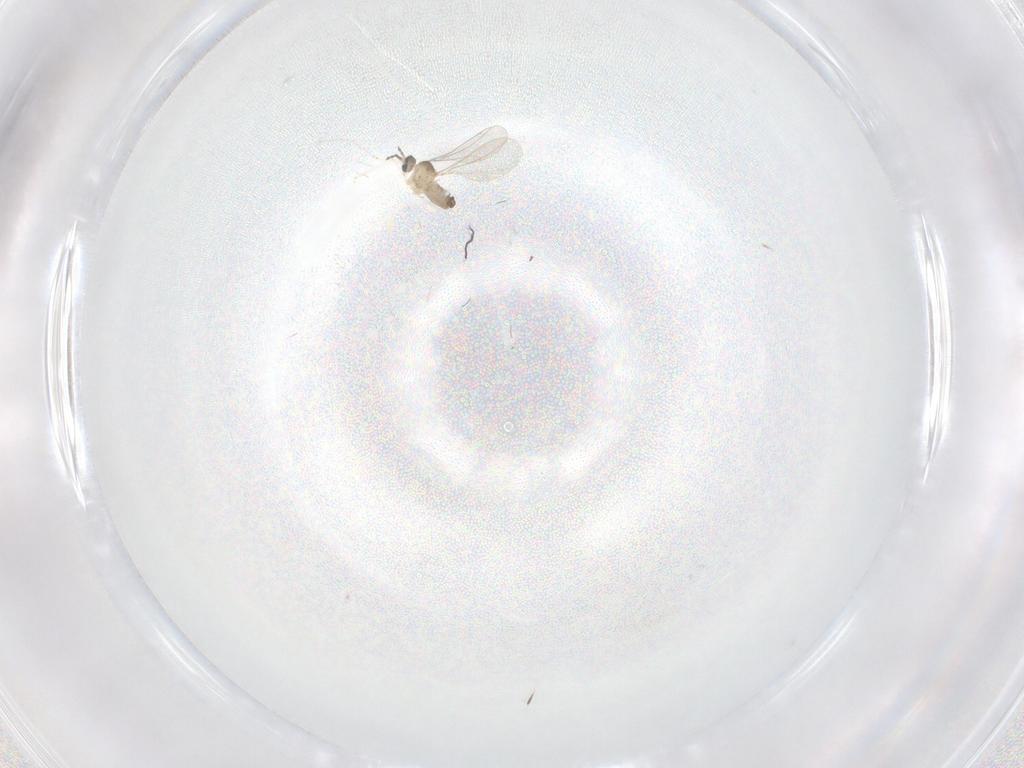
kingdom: Animalia
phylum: Arthropoda
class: Insecta
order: Diptera
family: Cecidomyiidae
